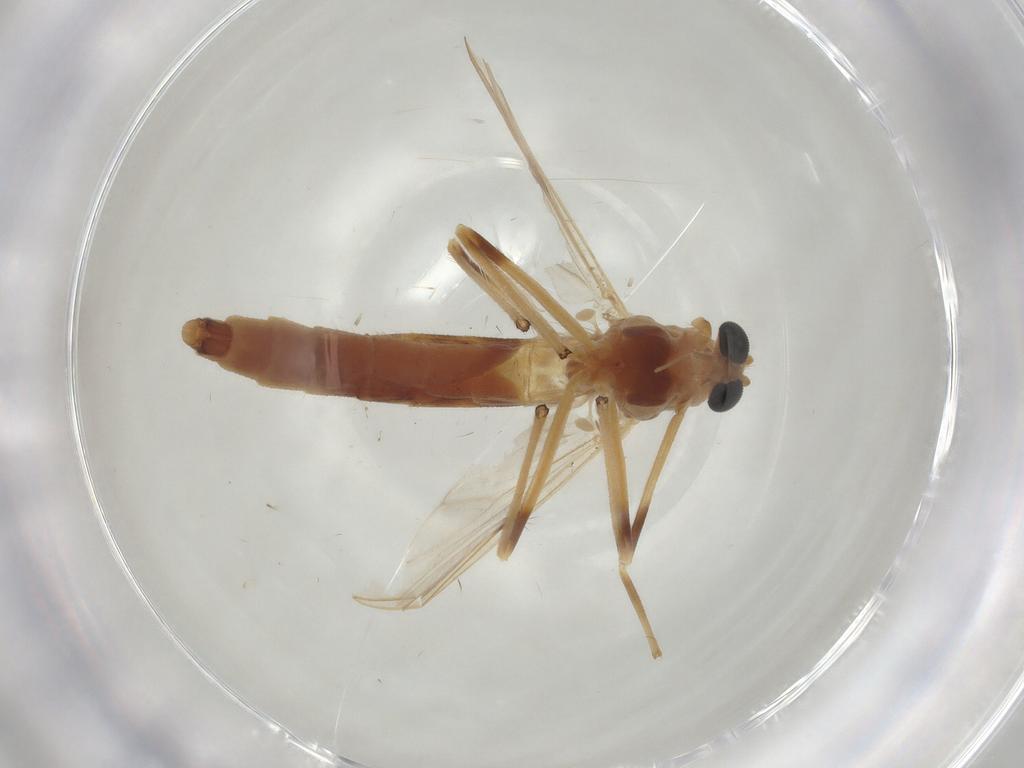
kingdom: Animalia
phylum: Arthropoda
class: Insecta
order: Diptera
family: Chironomidae
